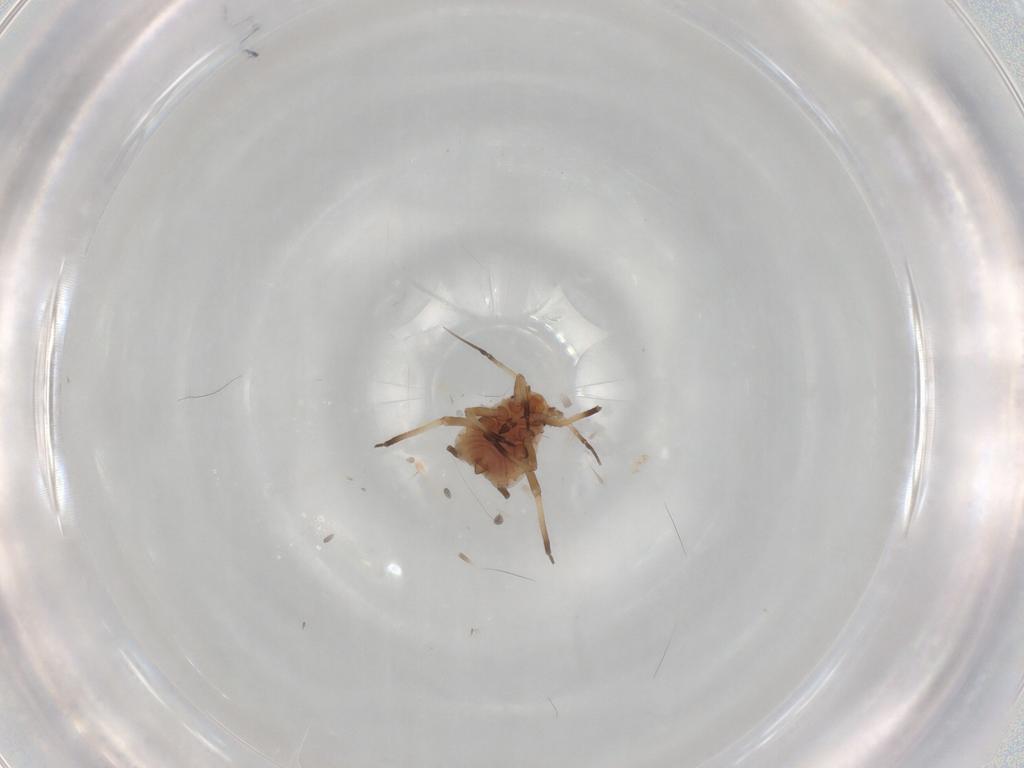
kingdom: Animalia
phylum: Arthropoda
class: Insecta
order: Hemiptera
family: Aphididae
